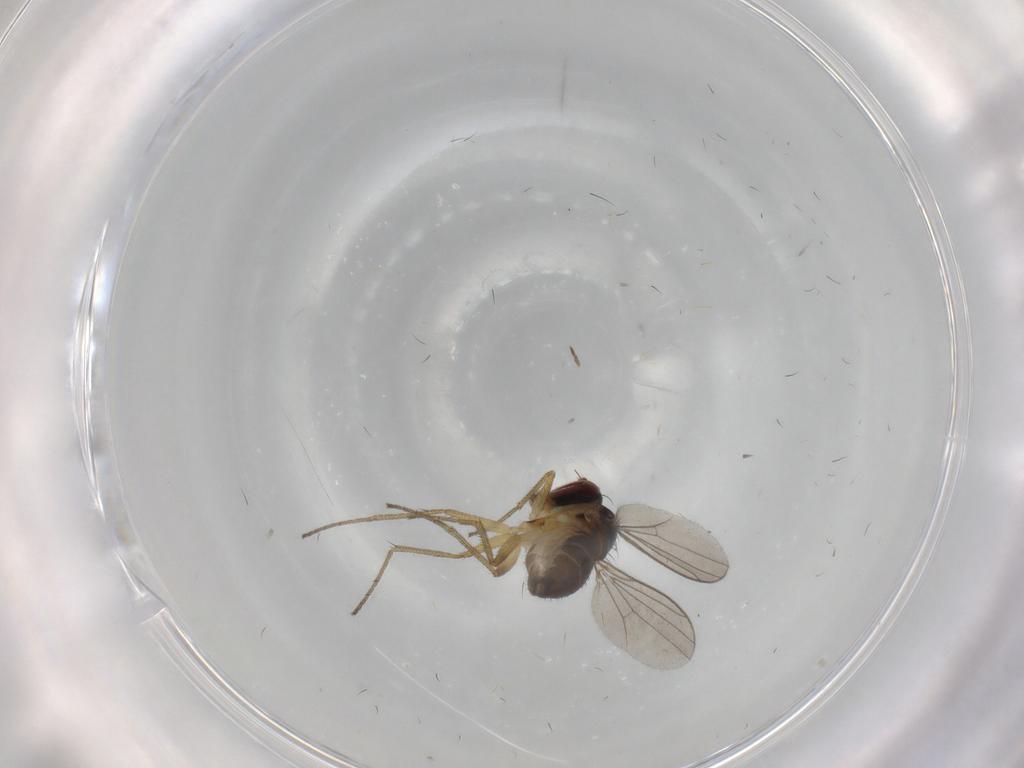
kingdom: Animalia
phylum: Arthropoda
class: Insecta
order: Diptera
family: Dolichopodidae
